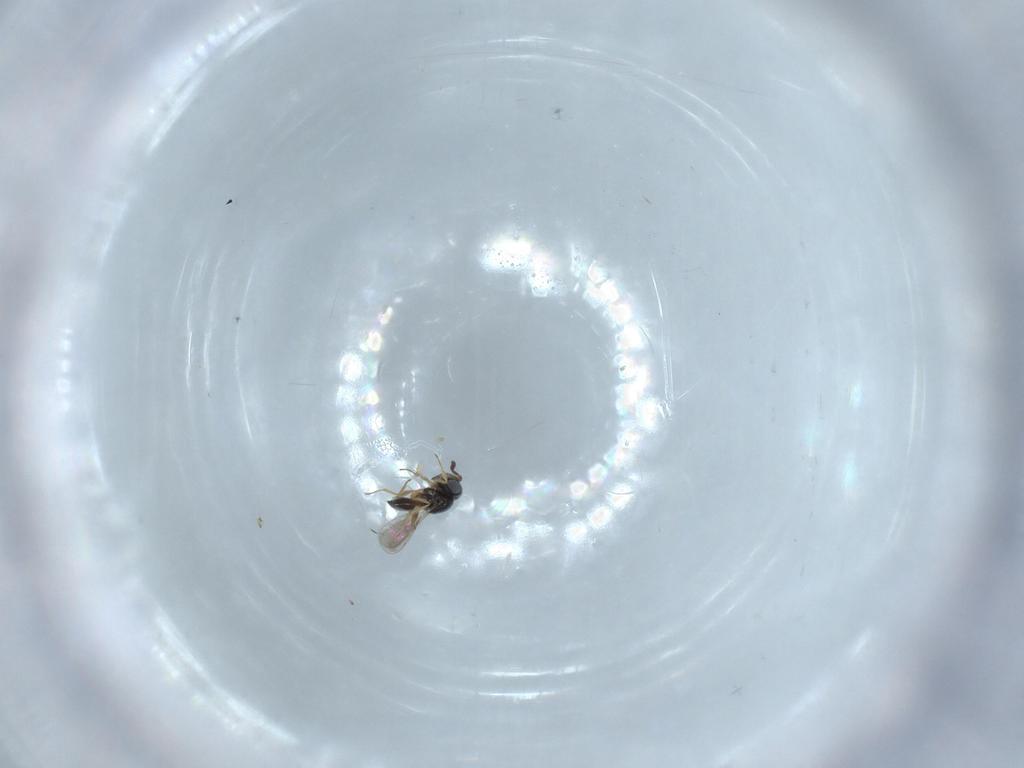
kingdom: Animalia
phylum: Arthropoda
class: Insecta
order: Hymenoptera
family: Scelionidae
